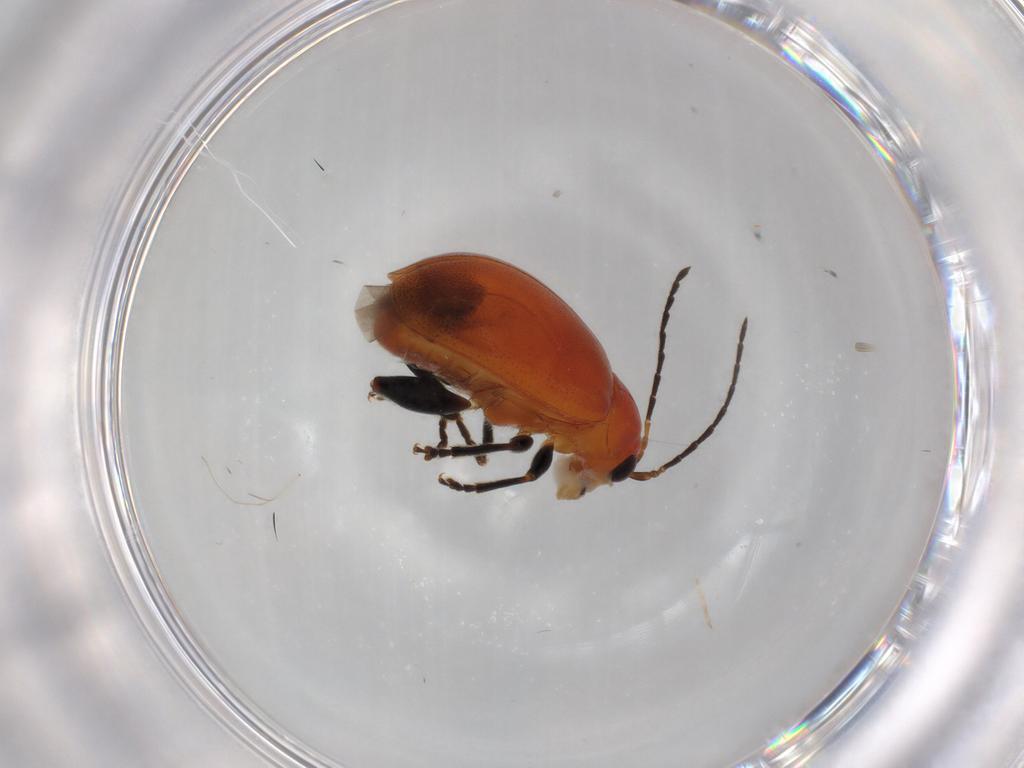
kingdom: Animalia
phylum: Arthropoda
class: Insecta
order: Coleoptera
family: Chrysomelidae
